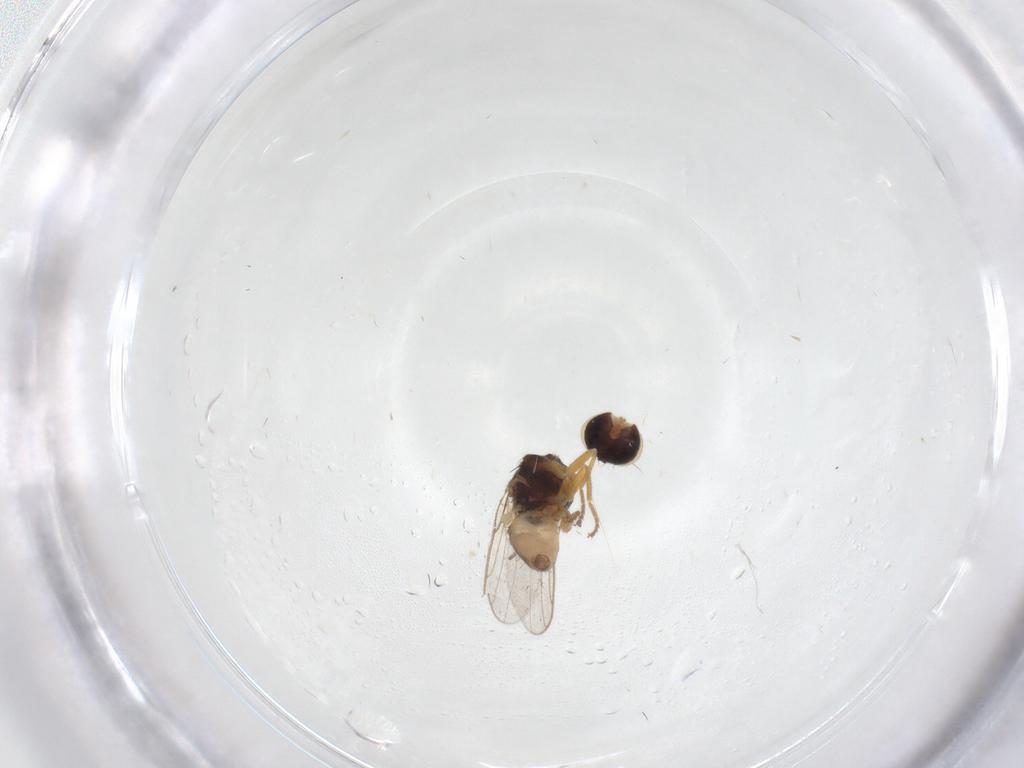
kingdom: Animalia
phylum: Arthropoda
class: Insecta
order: Diptera
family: Chloropidae
